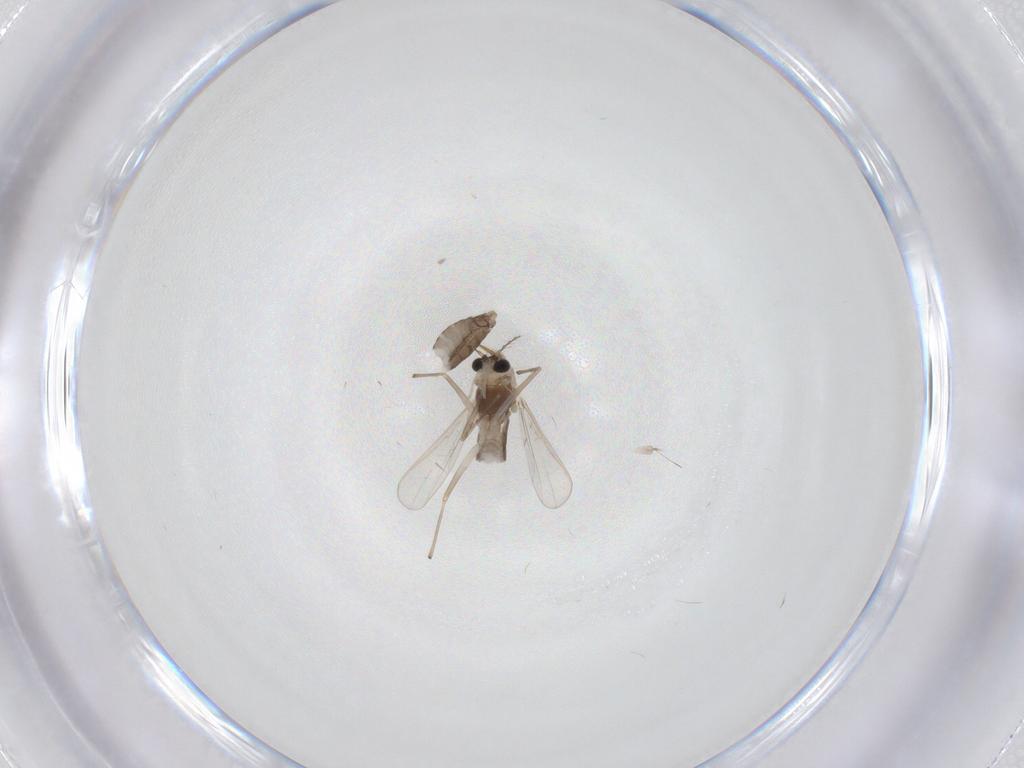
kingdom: Animalia
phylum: Arthropoda
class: Insecta
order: Diptera
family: Chironomidae
